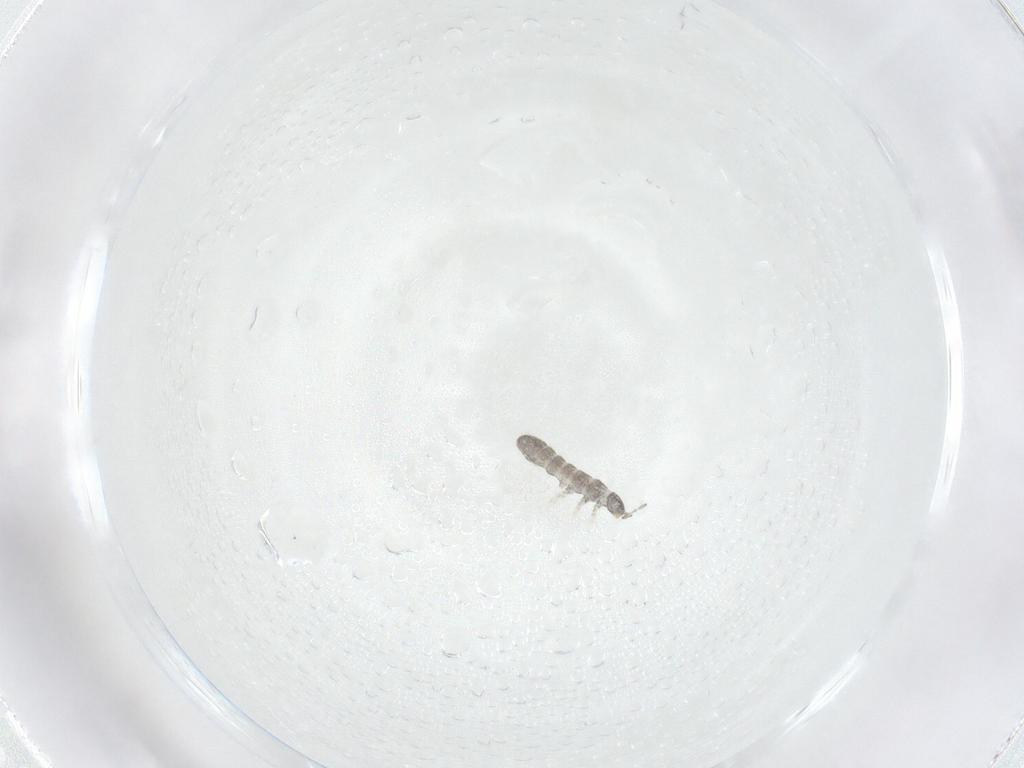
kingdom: Animalia
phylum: Arthropoda
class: Collembola
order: Entomobryomorpha
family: Isotomidae
